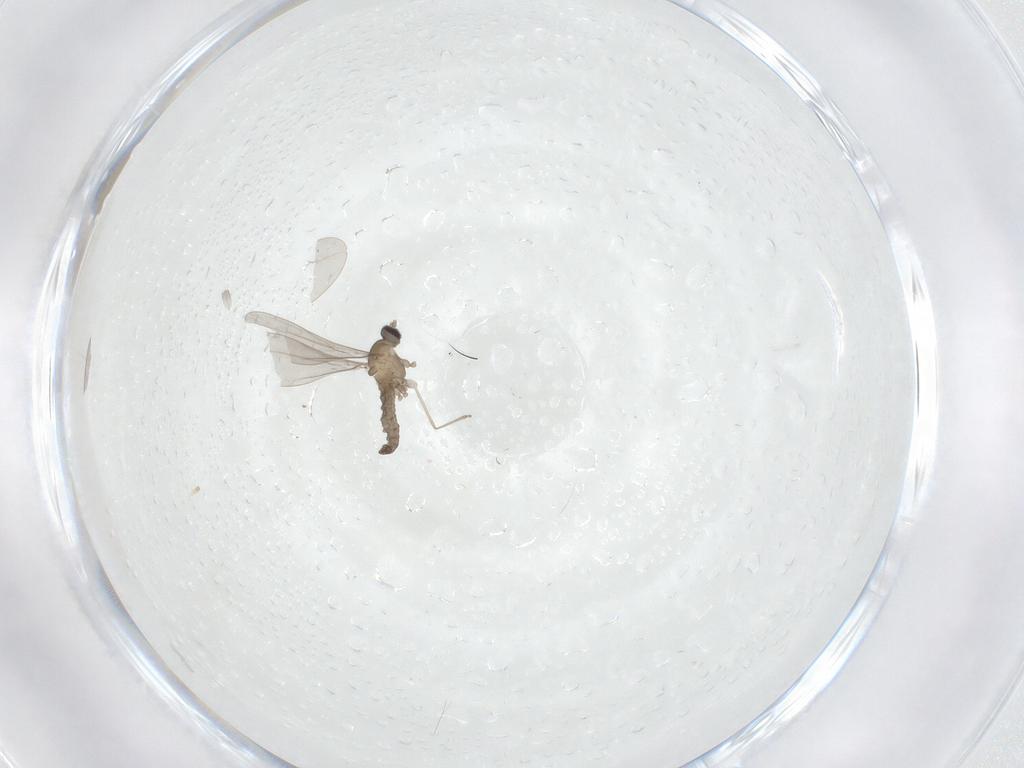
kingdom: Animalia
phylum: Arthropoda
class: Insecta
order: Diptera
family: Cecidomyiidae
